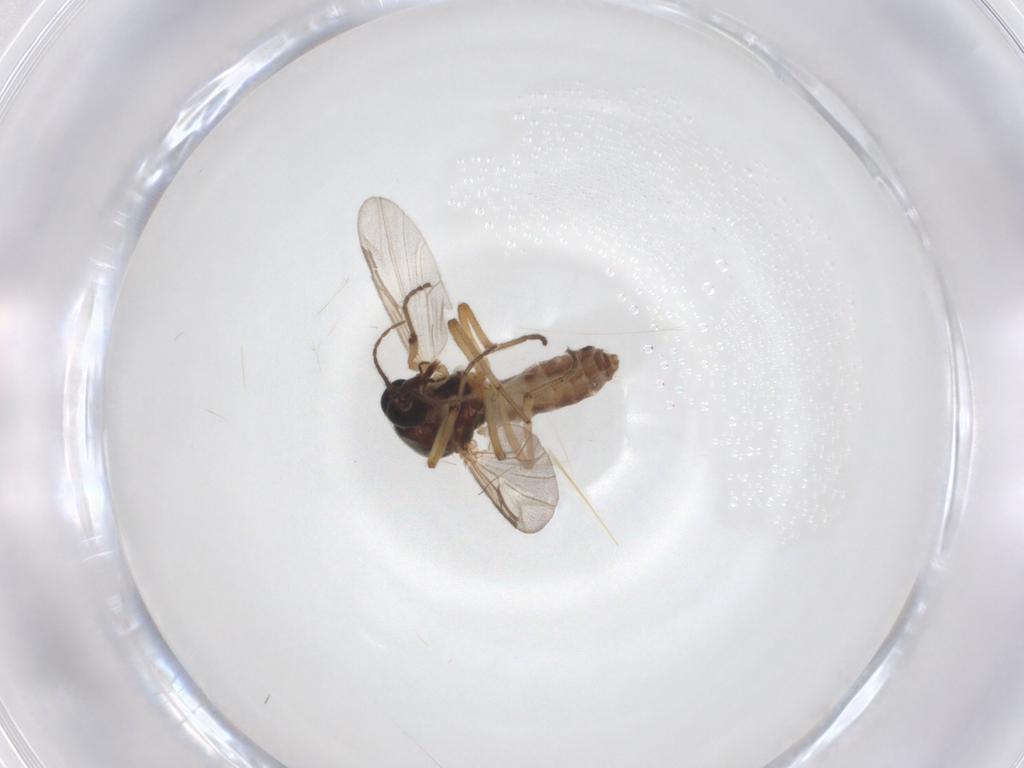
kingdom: Animalia
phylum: Arthropoda
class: Insecta
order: Diptera
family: Ceratopogonidae
